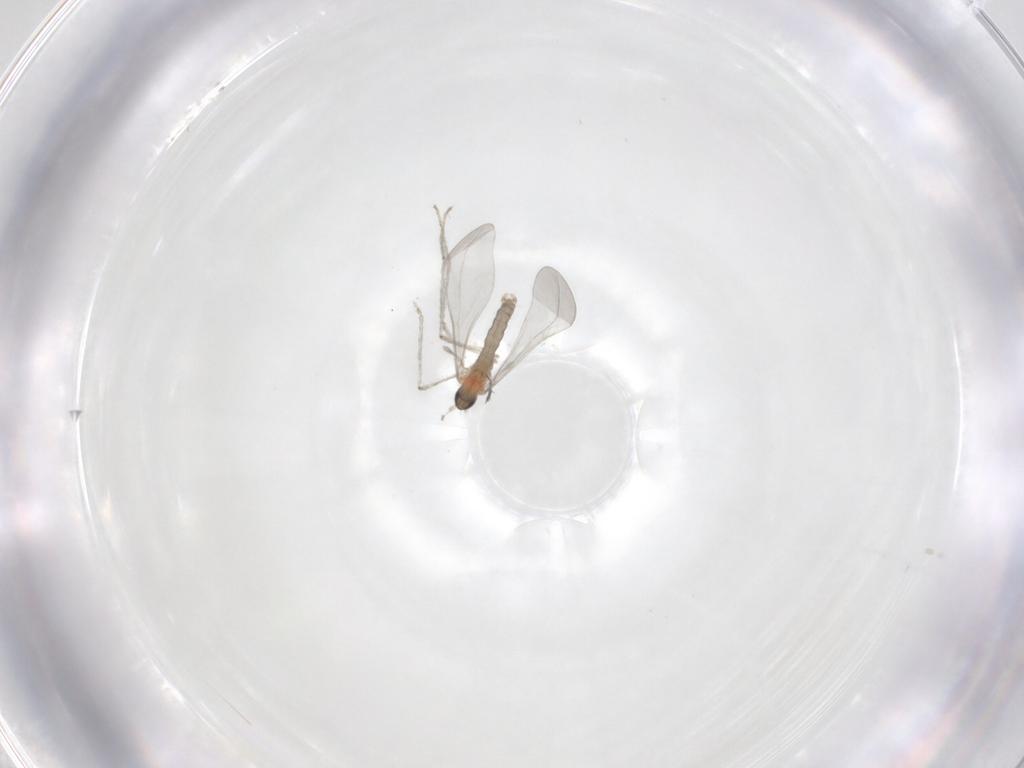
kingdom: Animalia
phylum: Arthropoda
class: Insecta
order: Diptera
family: Cecidomyiidae
